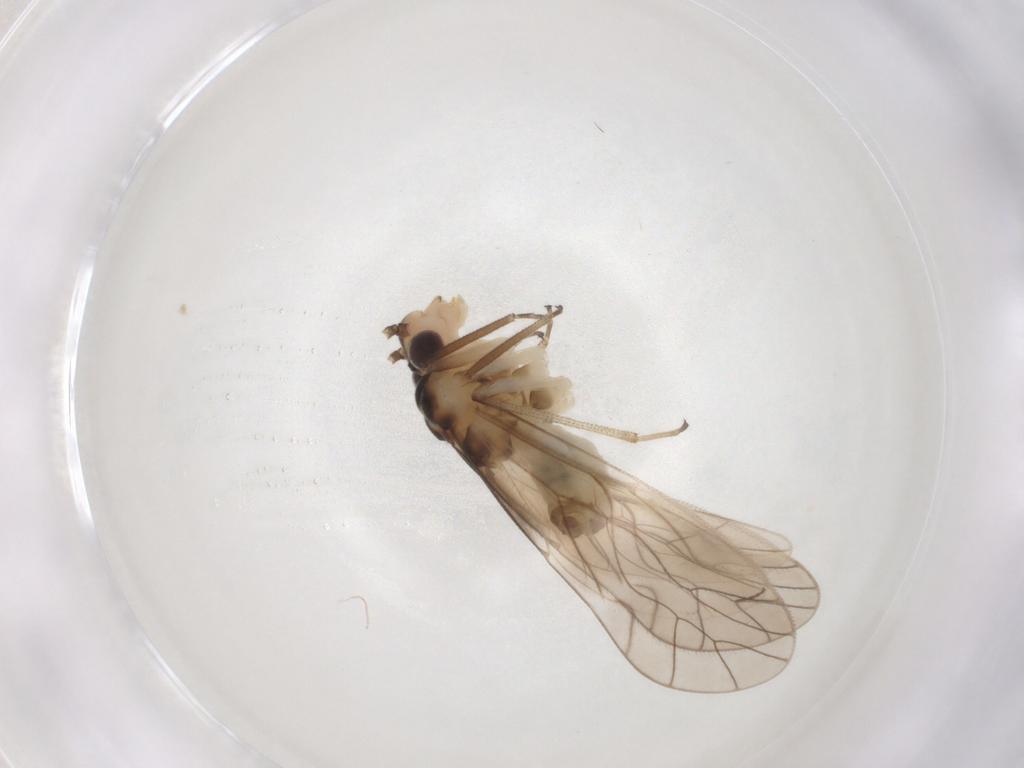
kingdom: Animalia
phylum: Arthropoda
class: Insecta
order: Psocodea
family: Caeciliusidae
